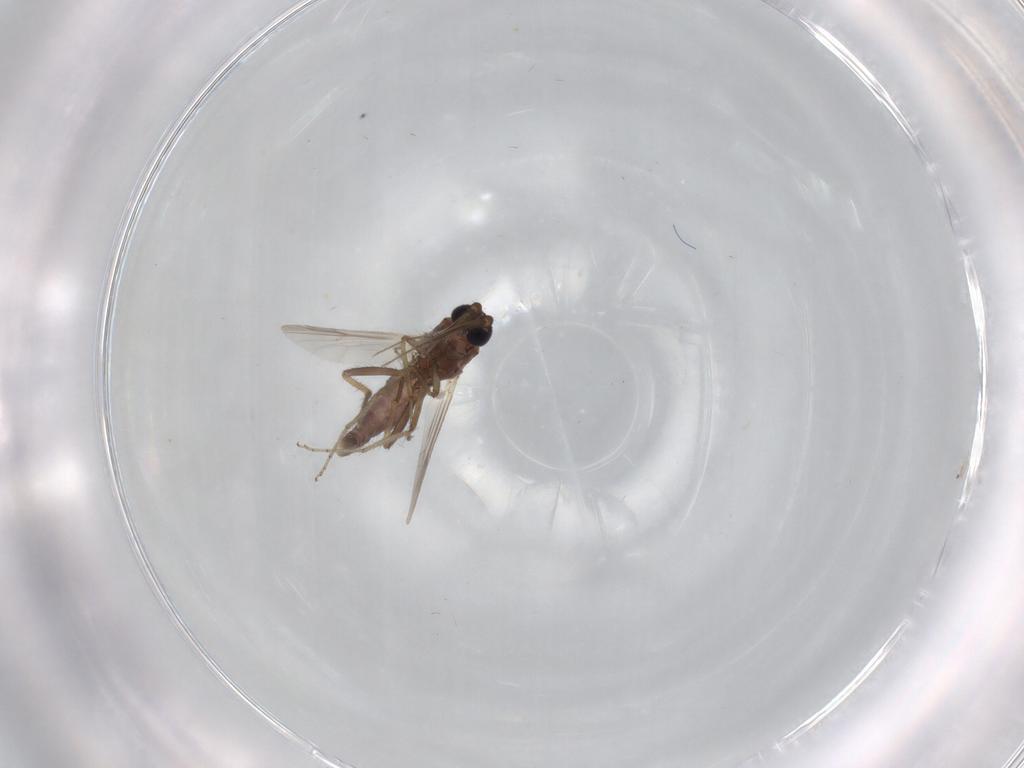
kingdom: Animalia
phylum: Arthropoda
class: Insecta
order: Diptera
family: Ceratopogonidae
